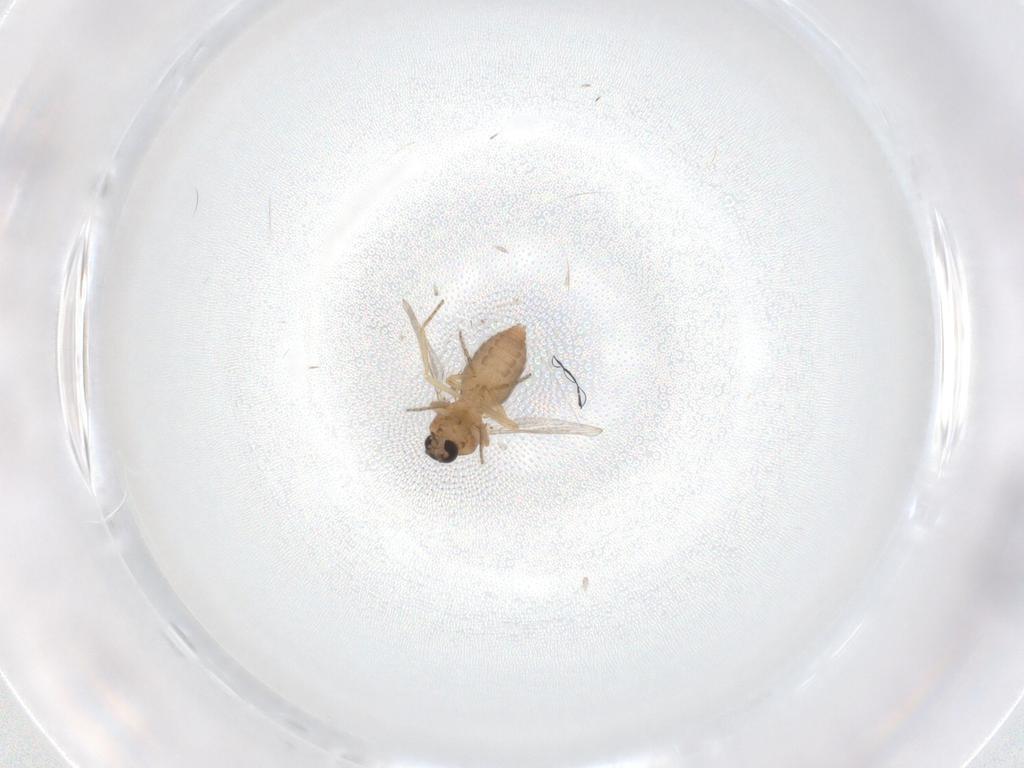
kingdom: Animalia
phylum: Arthropoda
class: Insecta
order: Diptera
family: Ceratopogonidae
